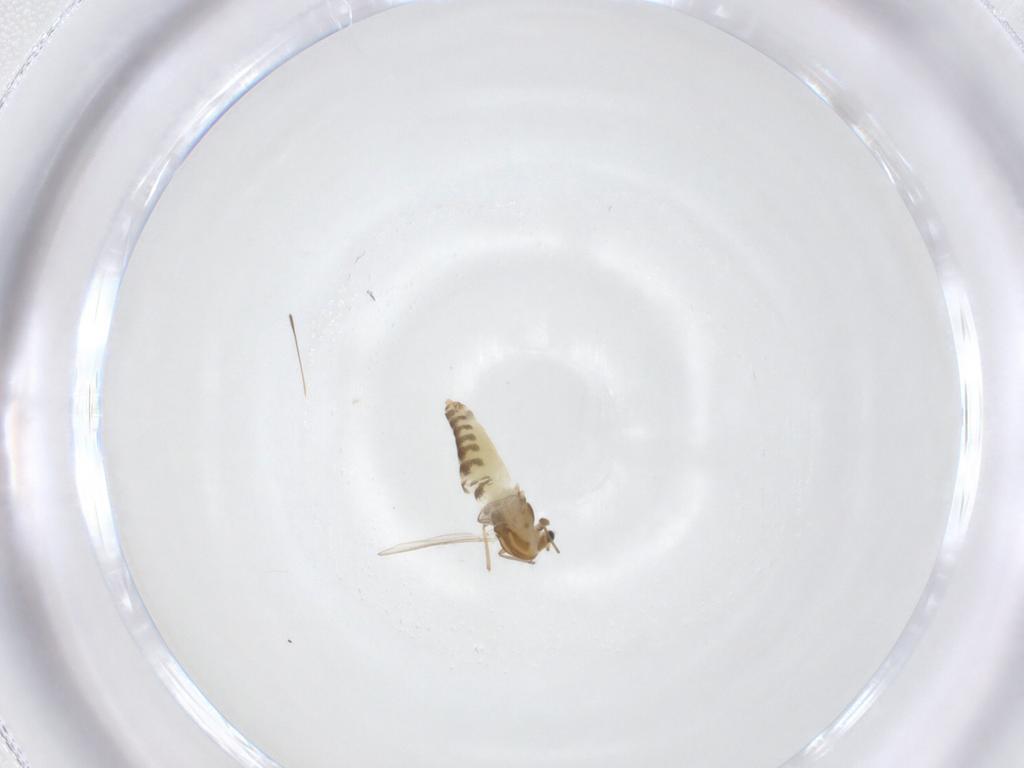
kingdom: Animalia
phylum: Arthropoda
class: Insecta
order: Diptera
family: Chironomidae
